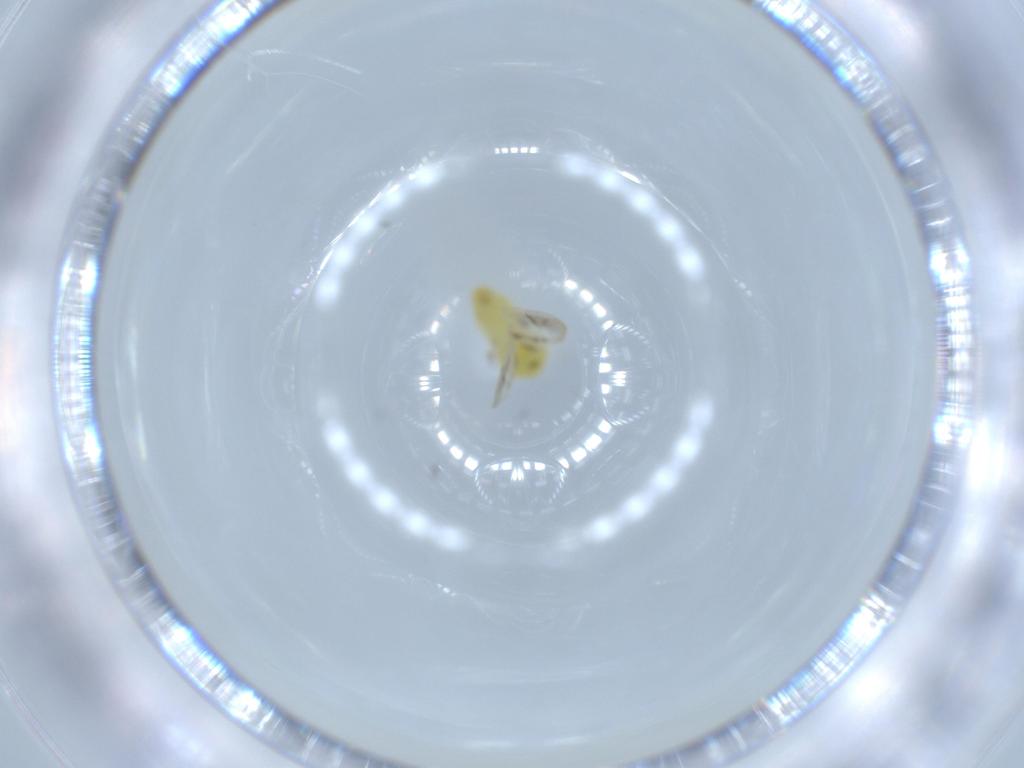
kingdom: Animalia
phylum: Arthropoda
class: Insecta
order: Hemiptera
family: Aleyrodidae
